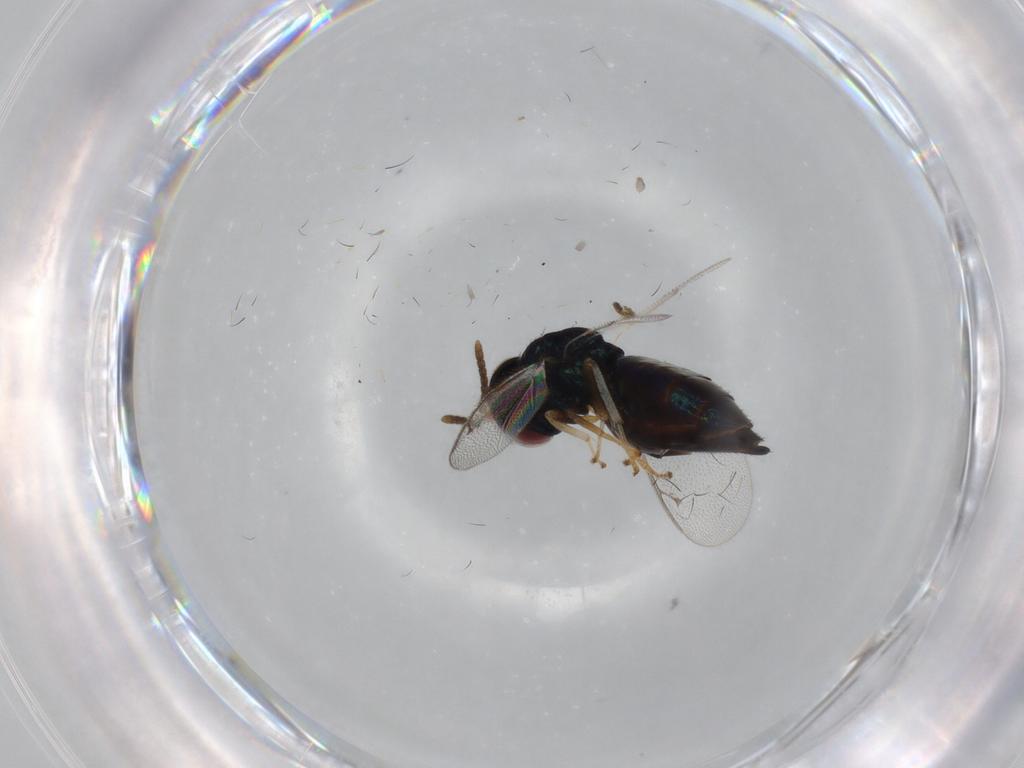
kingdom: Animalia
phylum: Arthropoda
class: Insecta
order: Hymenoptera
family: Pteromalidae
